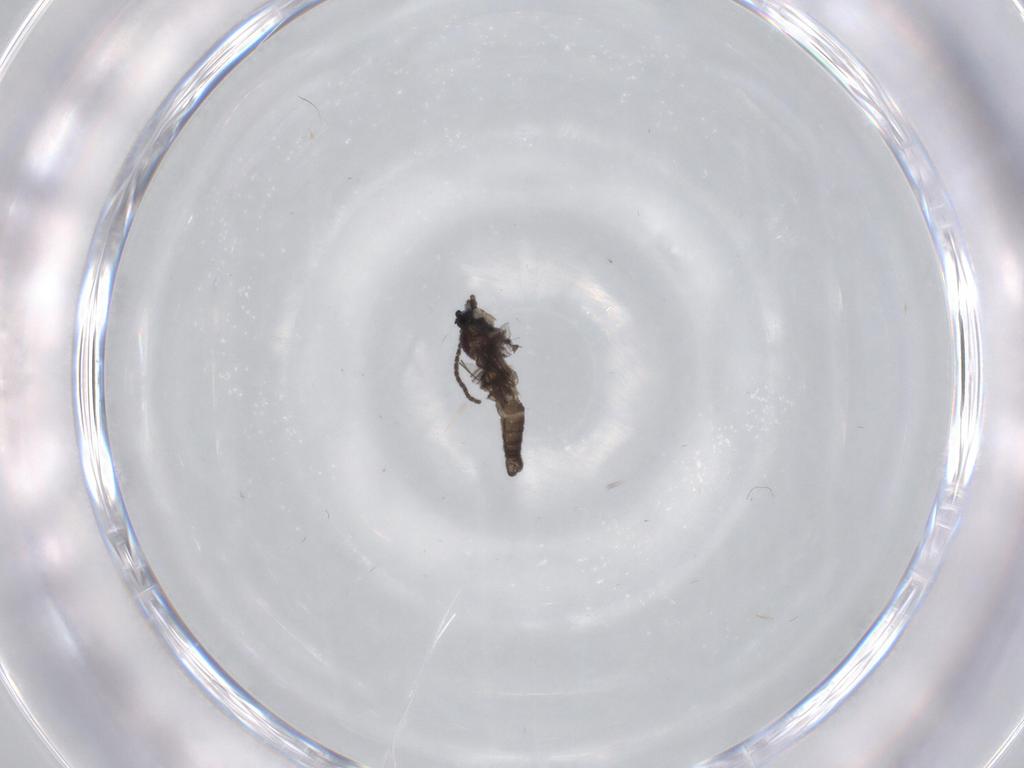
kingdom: Animalia
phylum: Arthropoda
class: Insecta
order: Diptera
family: Sciaridae
